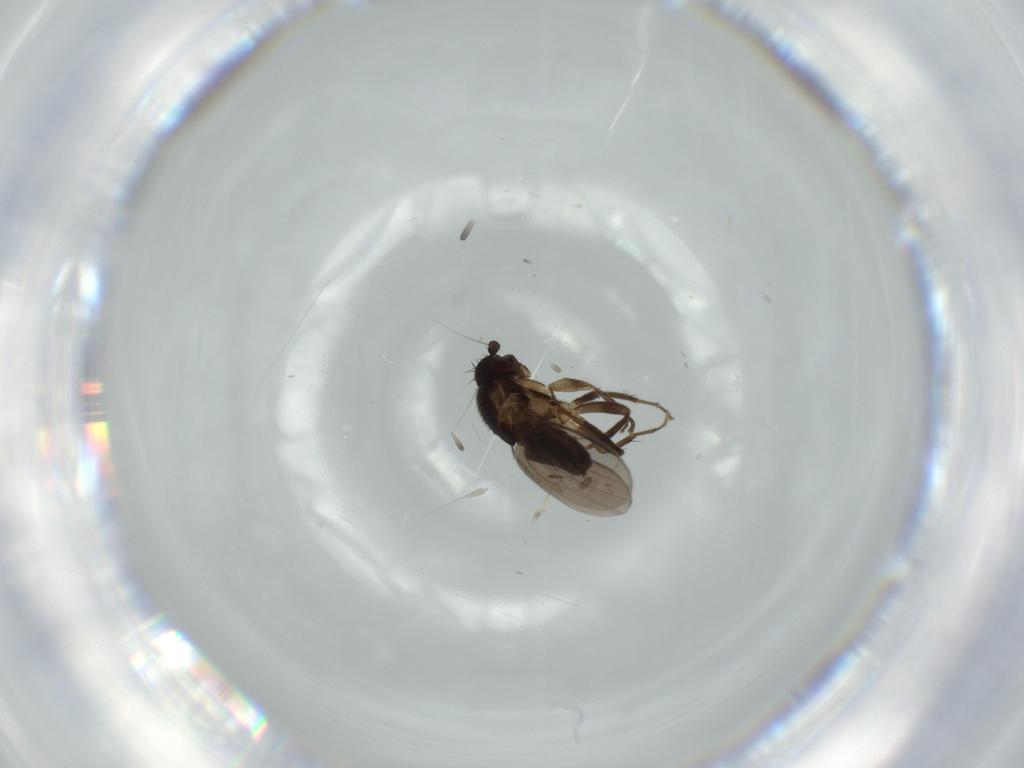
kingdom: Animalia
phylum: Arthropoda
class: Insecta
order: Diptera
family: Sphaeroceridae
